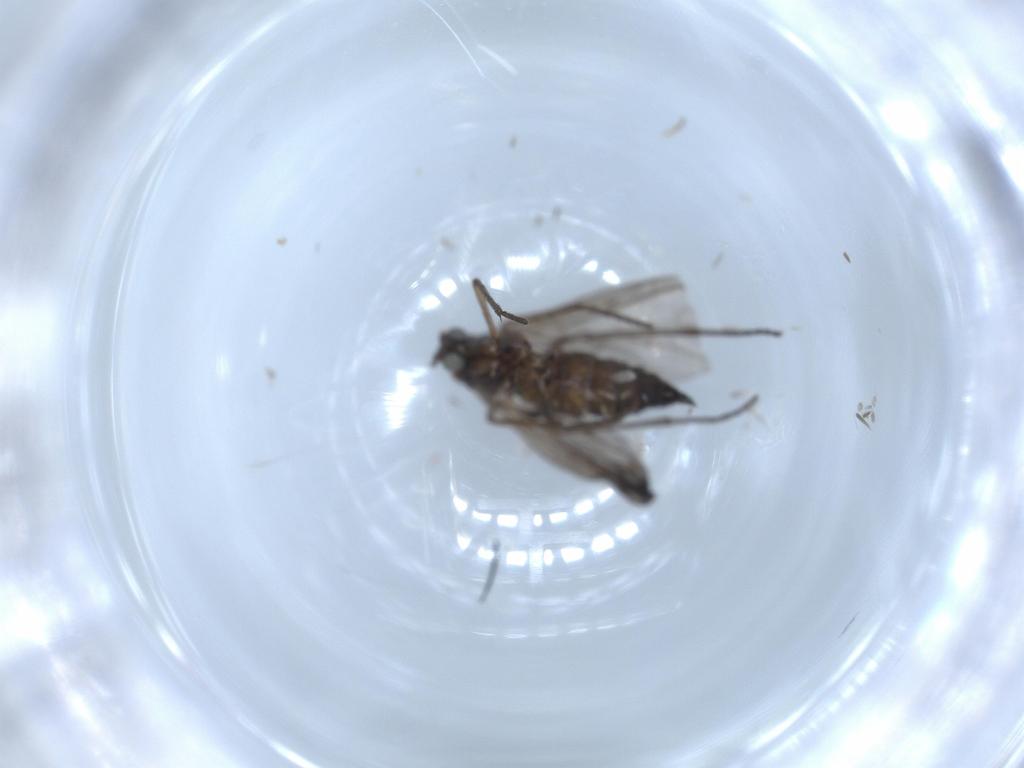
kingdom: Animalia
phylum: Arthropoda
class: Insecta
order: Diptera
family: Sciaridae
